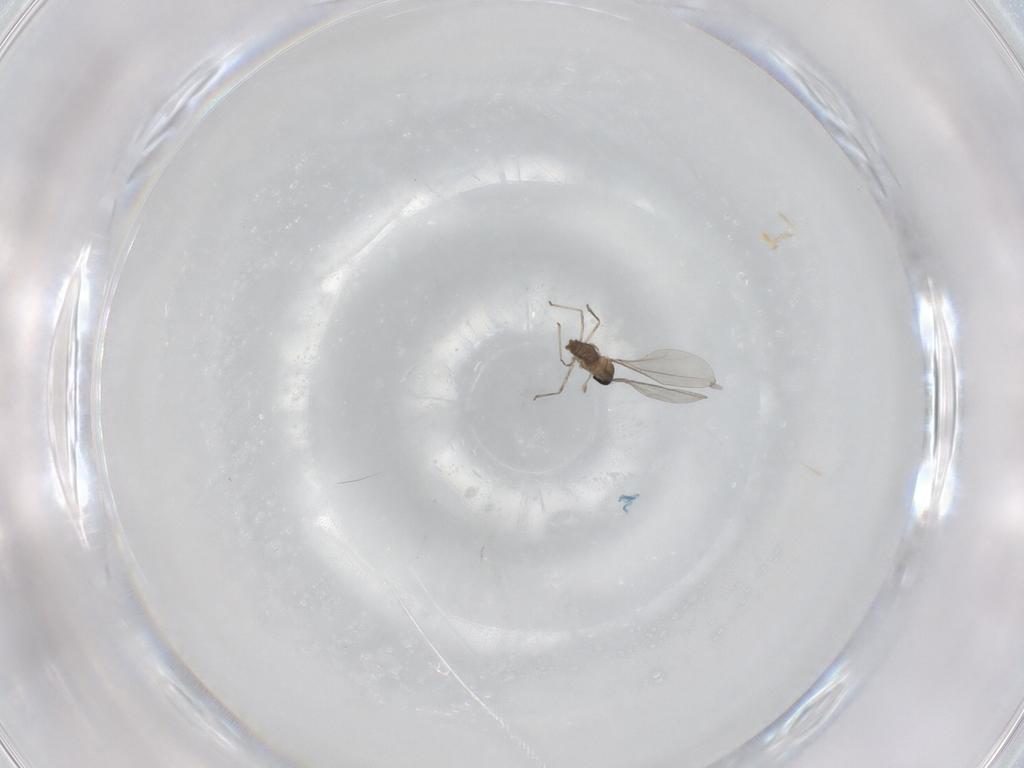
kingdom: Animalia
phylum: Arthropoda
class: Insecta
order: Diptera
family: Cecidomyiidae
